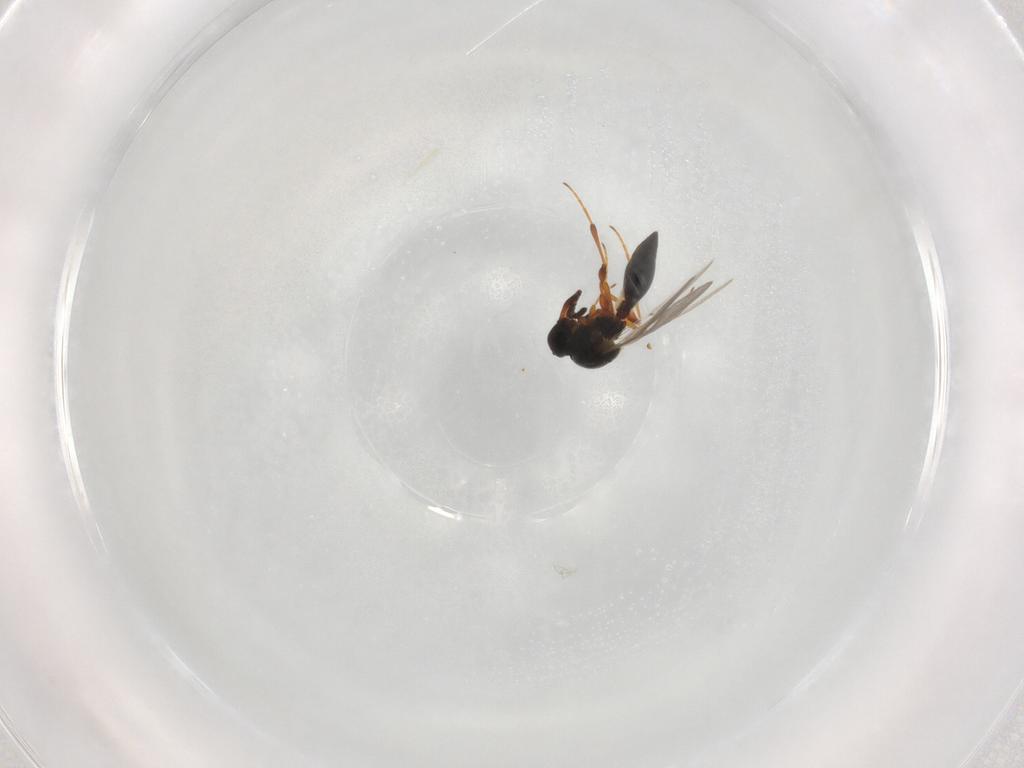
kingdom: Animalia
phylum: Arthropoda
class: Insecta
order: Hymenoptera
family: Platygastridae
